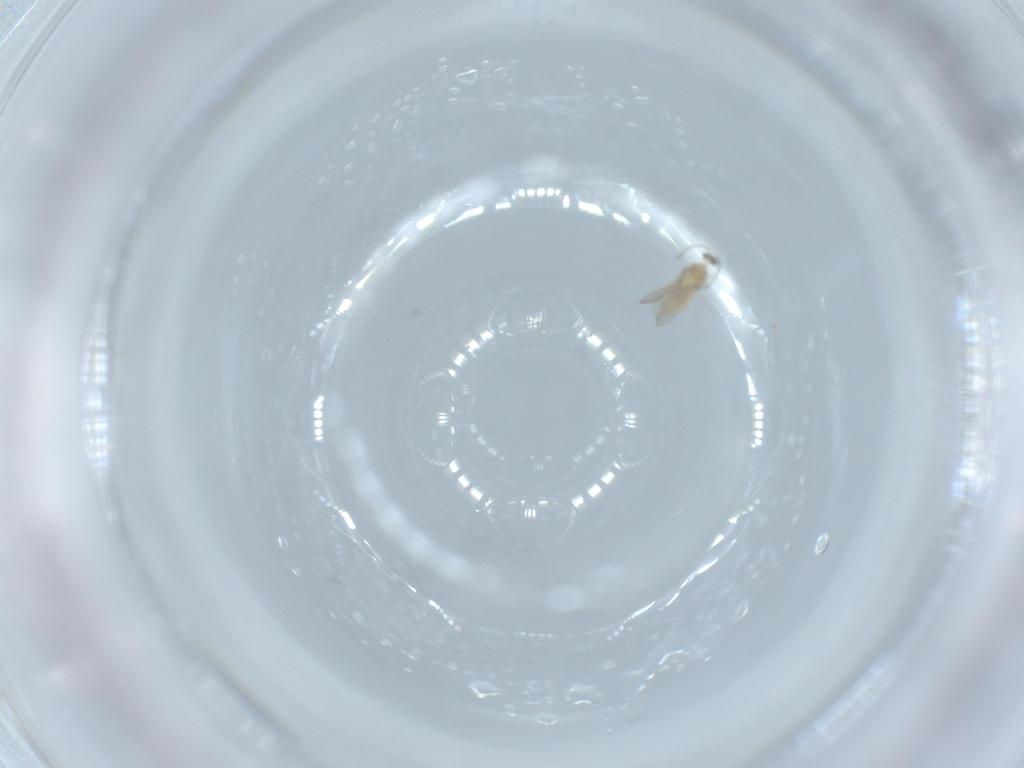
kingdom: Animalia
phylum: Arthropoda
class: Insecta
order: Diptera
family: Cecidomyiidae
